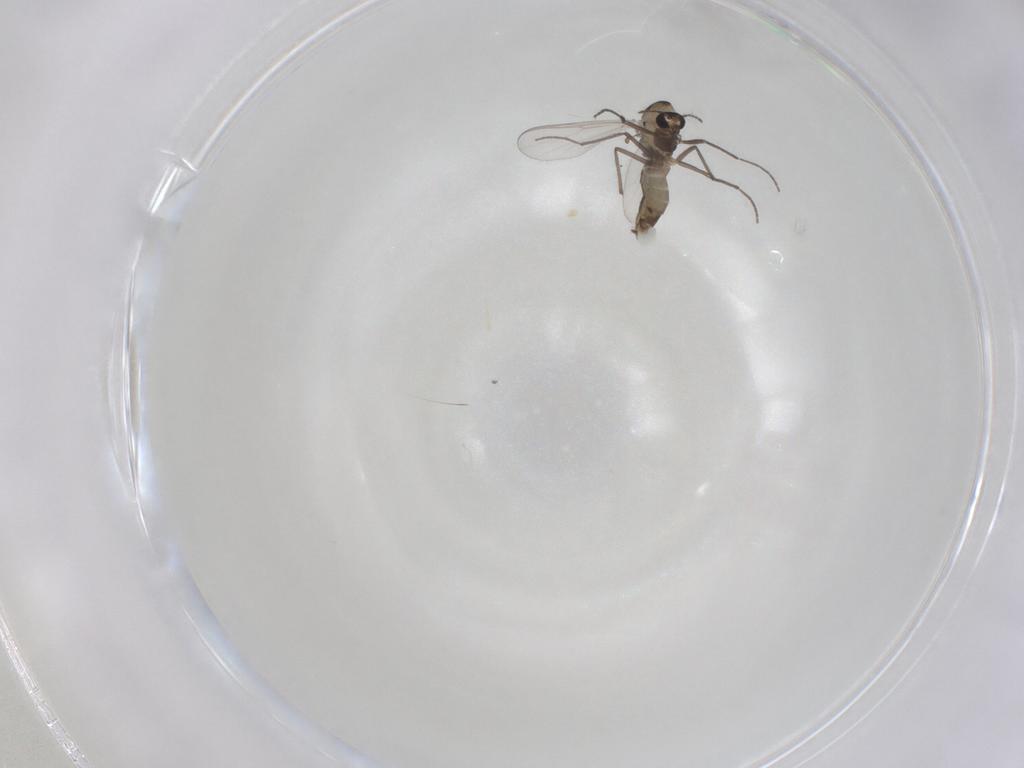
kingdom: Animalia
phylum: Arthropoda
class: Insecta
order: Diptera
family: Chironomidae
